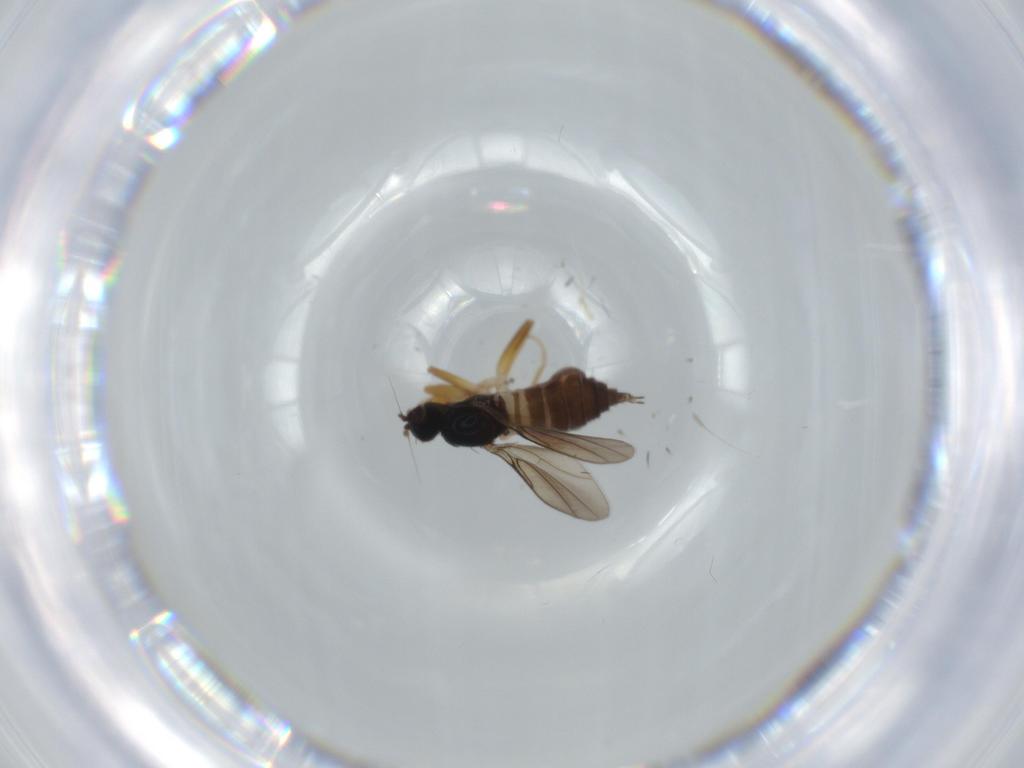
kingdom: Animalia
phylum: Arthropoda
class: Insecta
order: Diptera
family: Hybotidae
